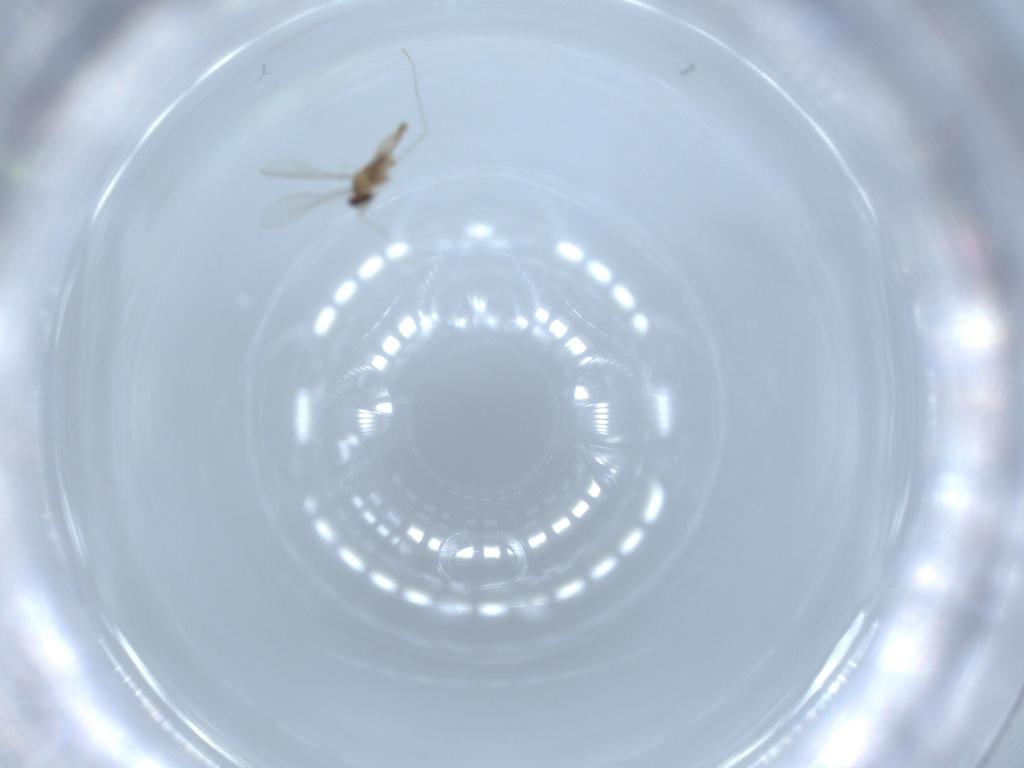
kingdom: Animalia
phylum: Arthropoda
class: Insecta
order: Diptera
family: Cecidomyiidae
